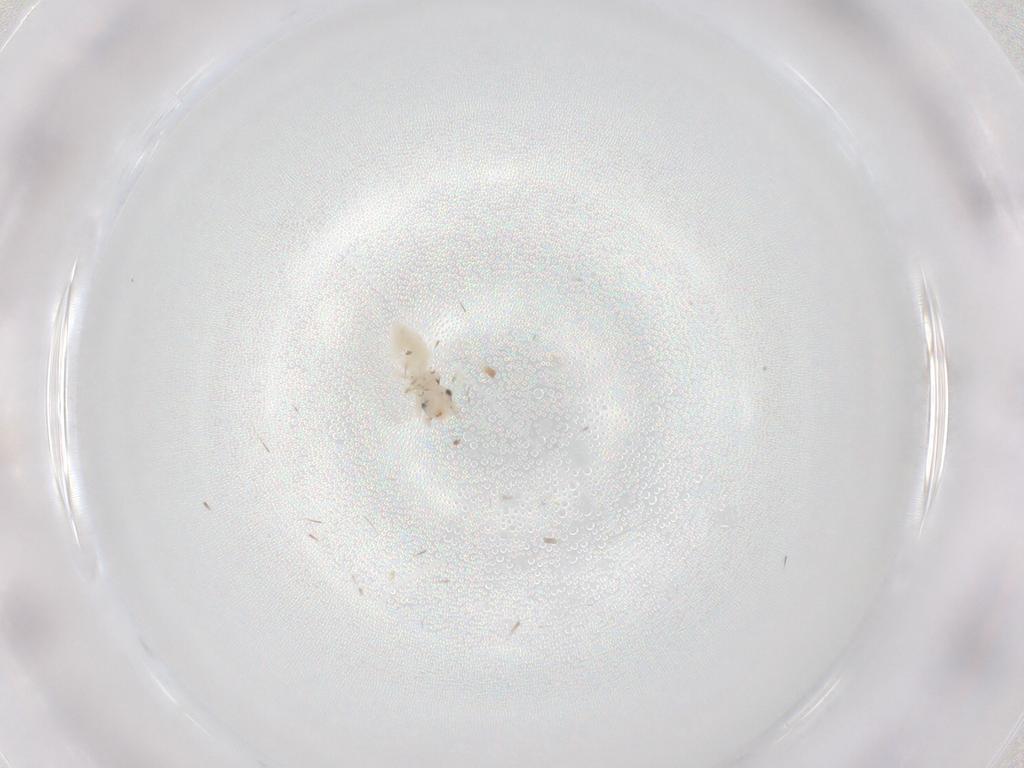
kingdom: Animalia
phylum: Arthropoda
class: Insecta
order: Psocodea
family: Lepidopsocidae
